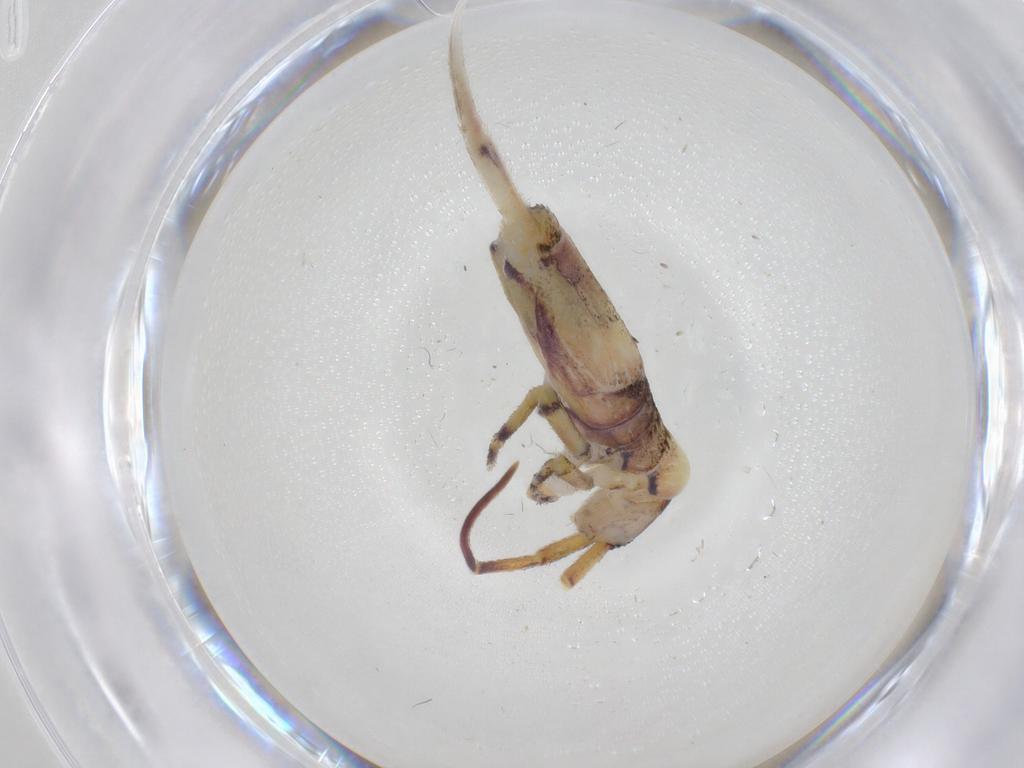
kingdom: Animalia
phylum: Arthropoda
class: Collembola
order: Entomobryomorpha
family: Entomobryidae
